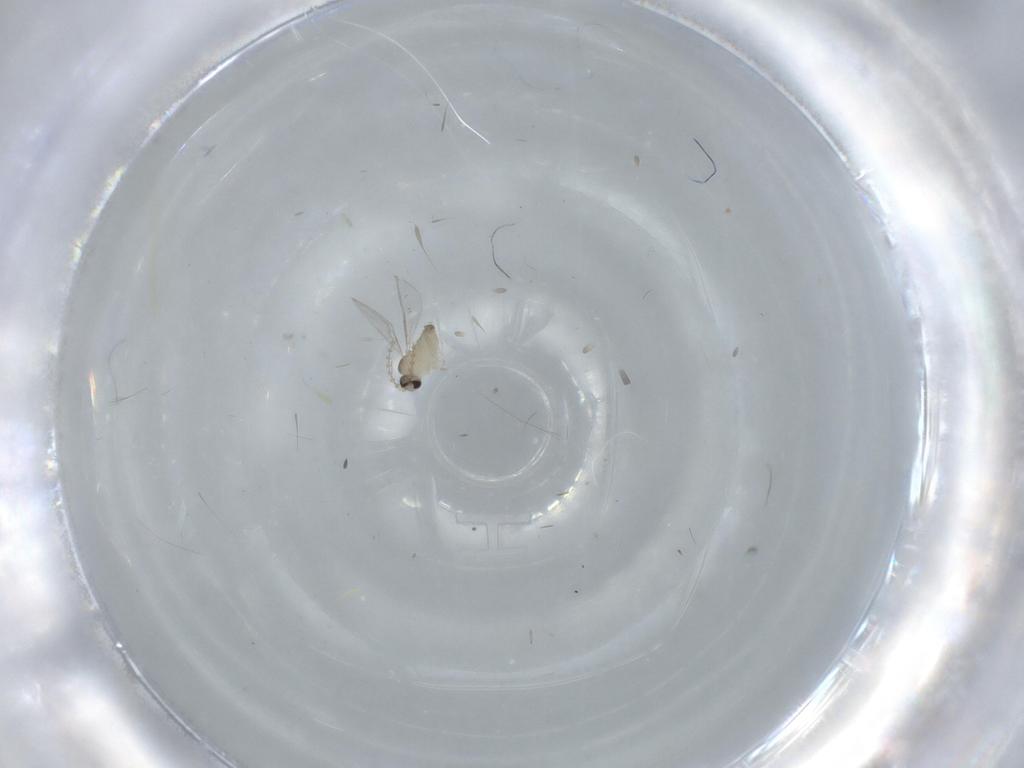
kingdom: Animalia
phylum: Arthropoda
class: Insecta
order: Diptera
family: Cecidomyiidae
